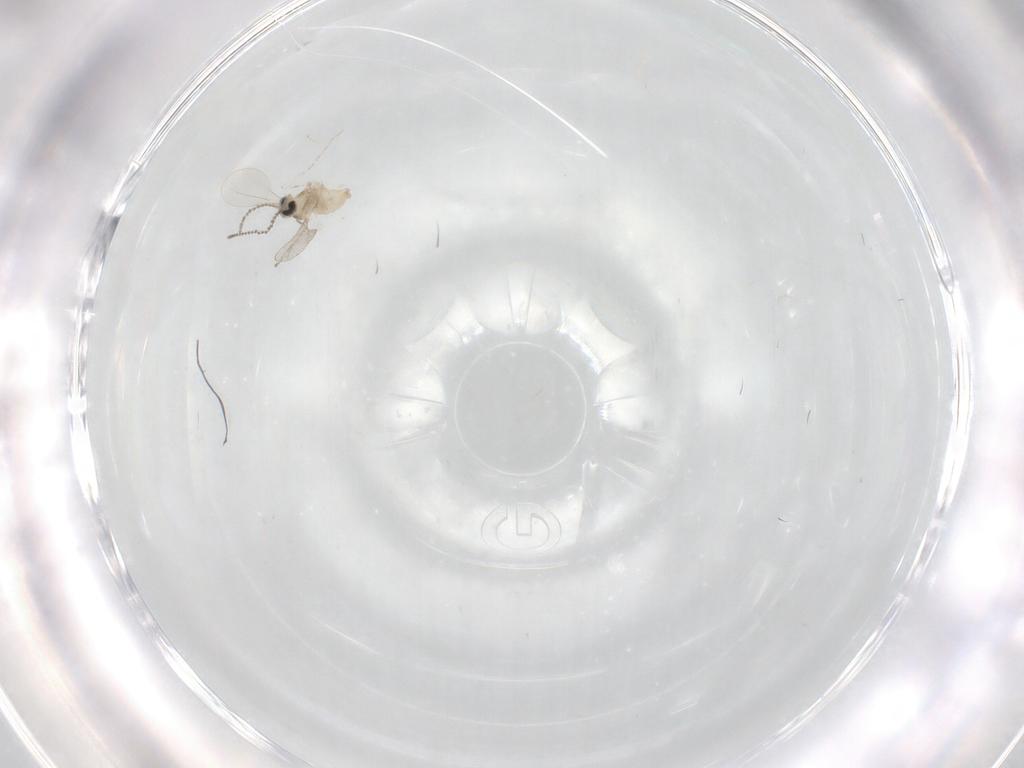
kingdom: Animalia
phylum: Arthropoda
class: Insecta
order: Diptera
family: Cecidomyiidae
